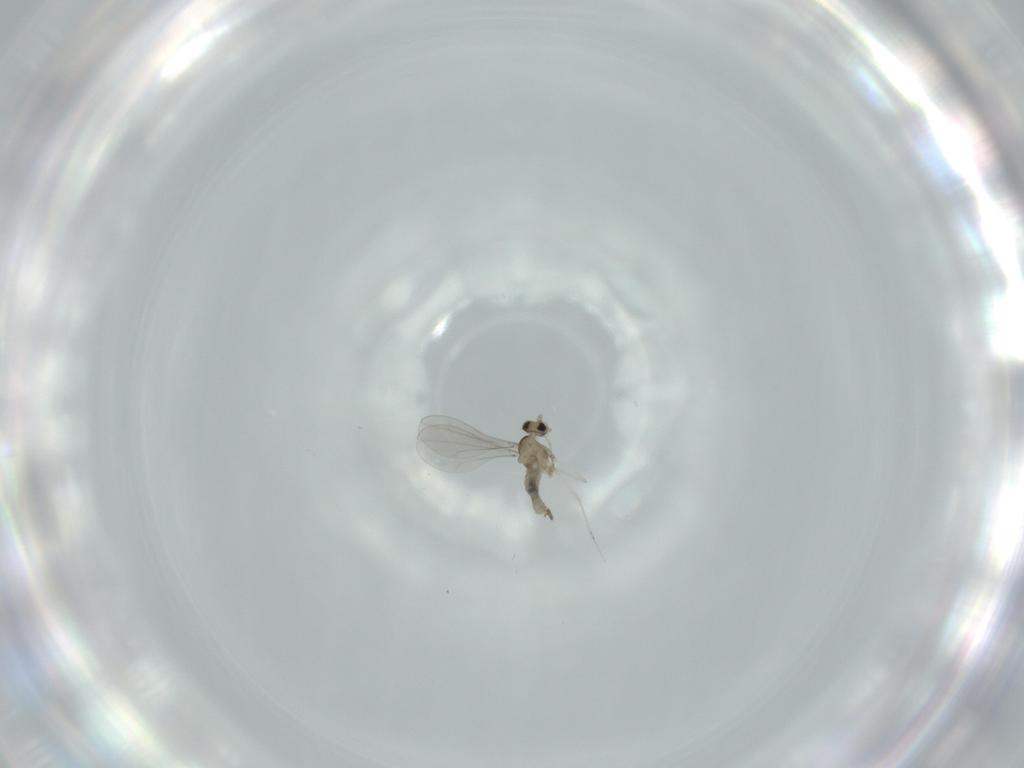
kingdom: Animalia
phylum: Arthropoda
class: Insecta
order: Diptera
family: Cecidomyiidae
